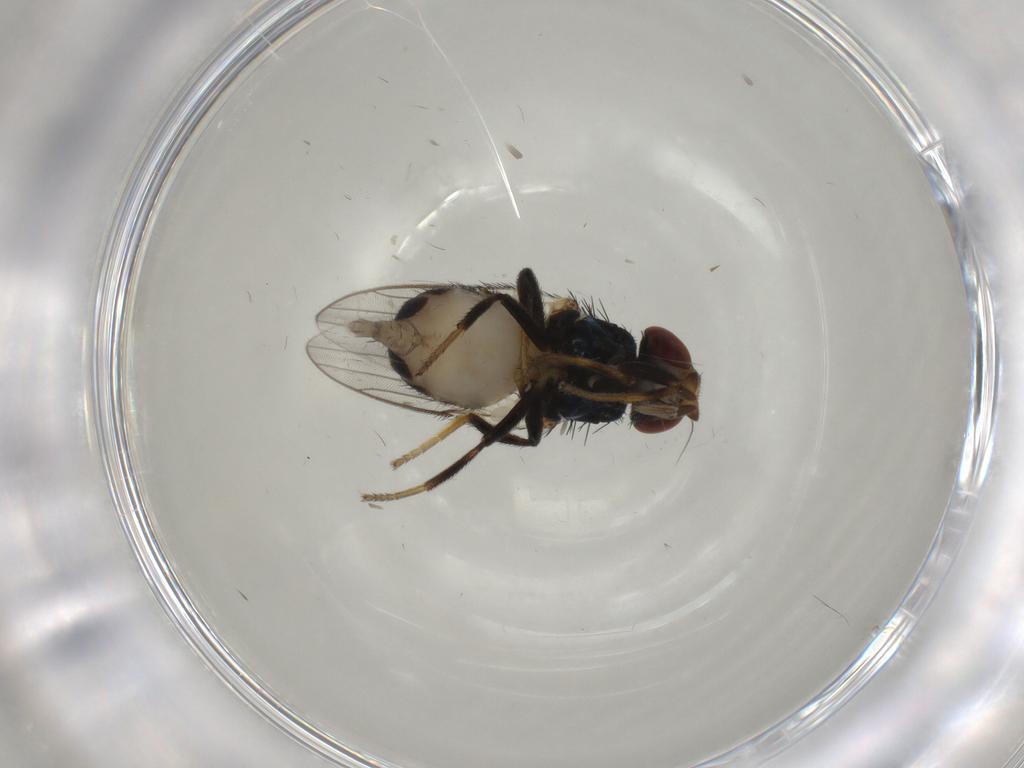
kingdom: Animalia
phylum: Arthropoda
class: Insecta
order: Diptera
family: Chloropidae
